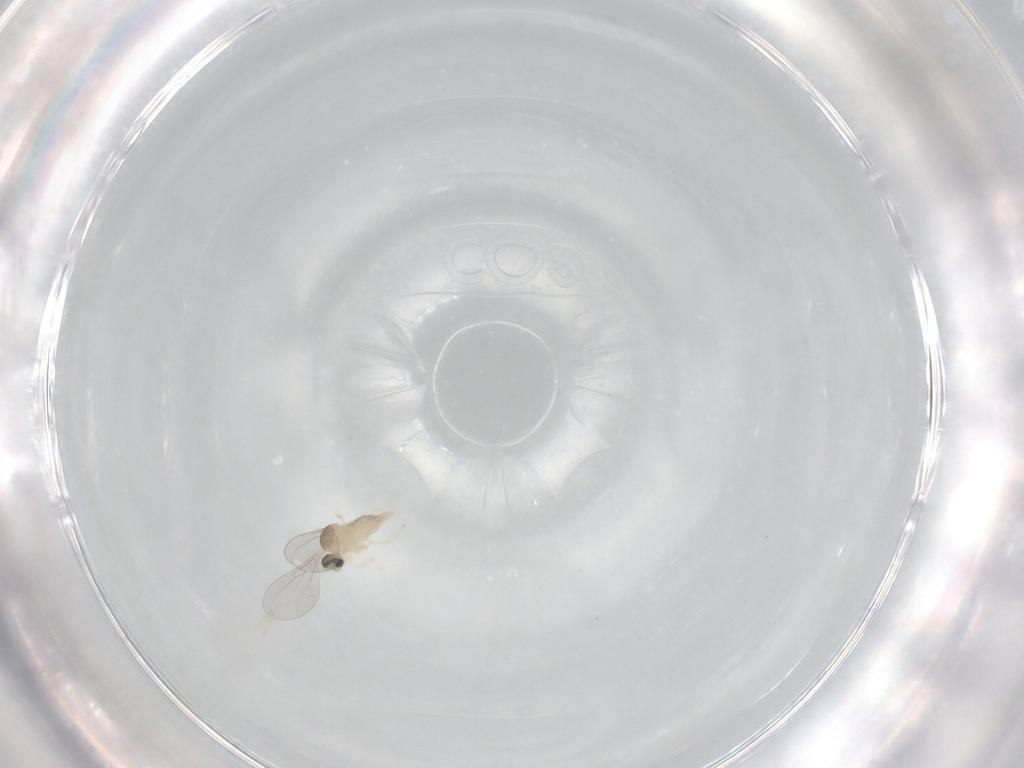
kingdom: Animalia
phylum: Arthropoda
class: Insecta
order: Diptera
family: Cecidomyiidae
